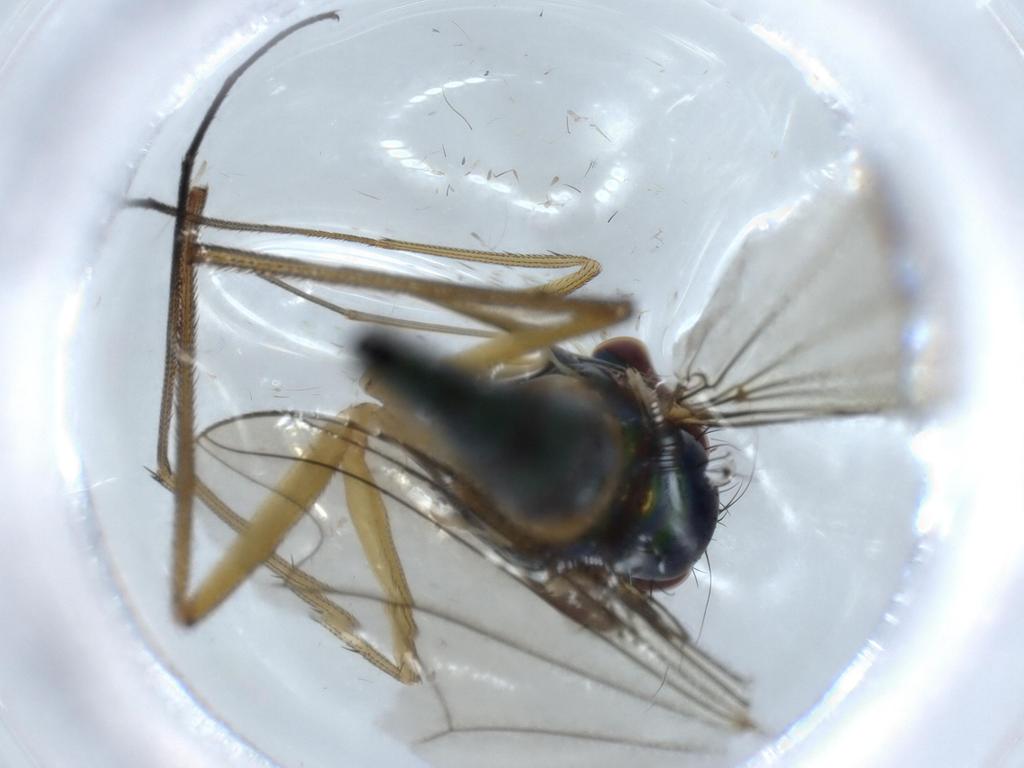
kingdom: Animalia
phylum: Arthropoda
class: Insecta
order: Diptera
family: Dolichopodidae
